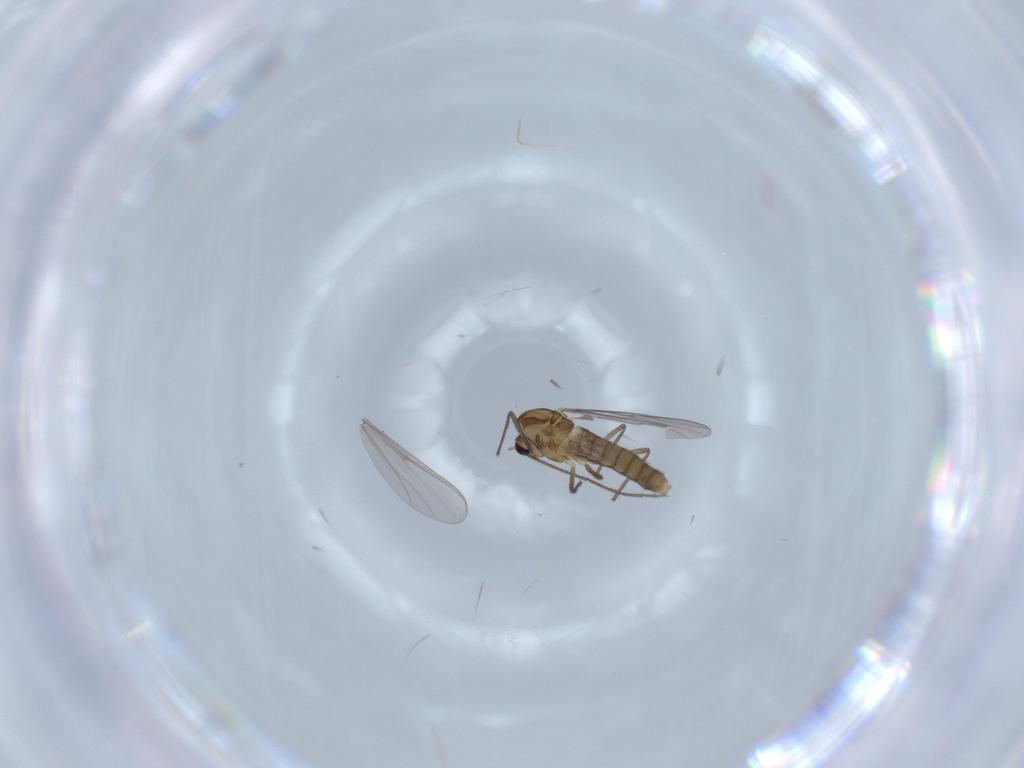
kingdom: Animalia
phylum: Arthropoda
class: Insecta
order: Diptera
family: Chironomidae
